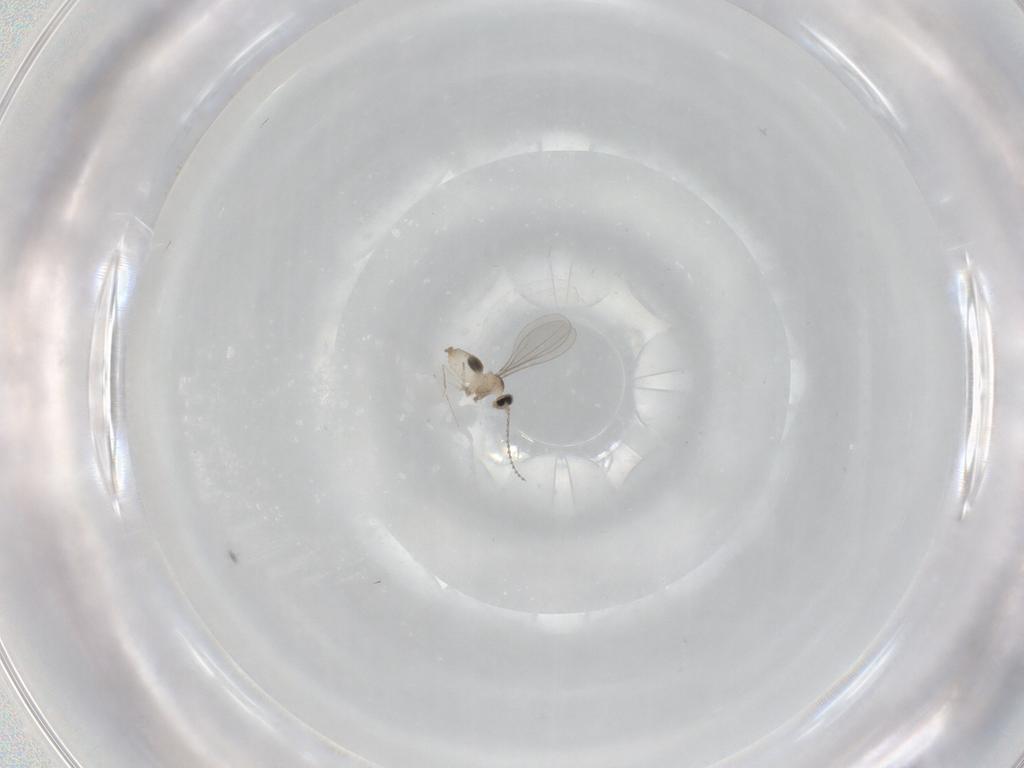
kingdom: Animalia
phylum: Arthropoda
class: Insecta
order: Diptera
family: Cecidomyiidae
